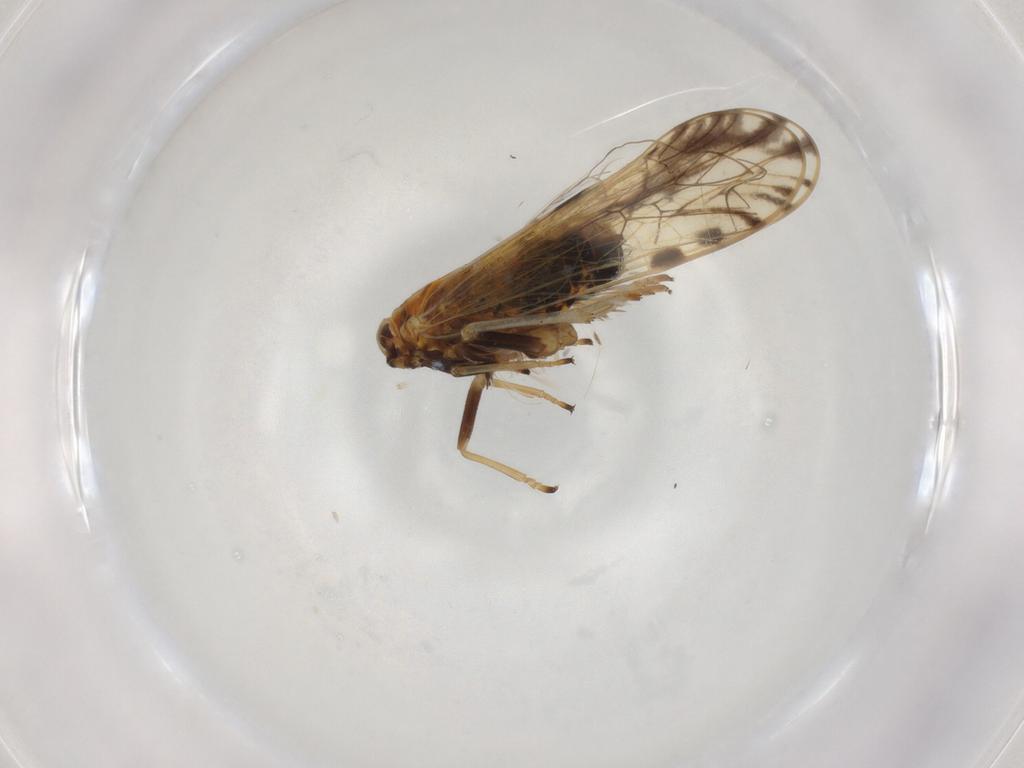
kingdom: Animalia
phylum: Arthropoda
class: Insecta
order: Hemiptera
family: Delphacidae
